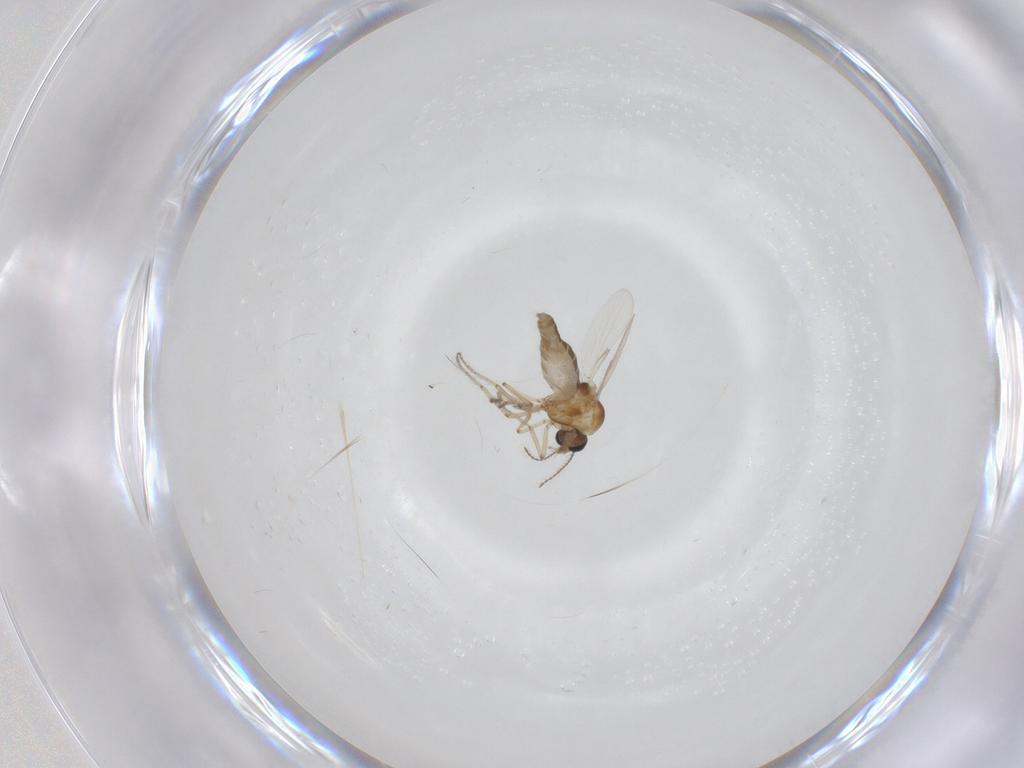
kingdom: Animalia
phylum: Arthropoda
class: Insecta
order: Diptera
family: Ceratopogonidae
